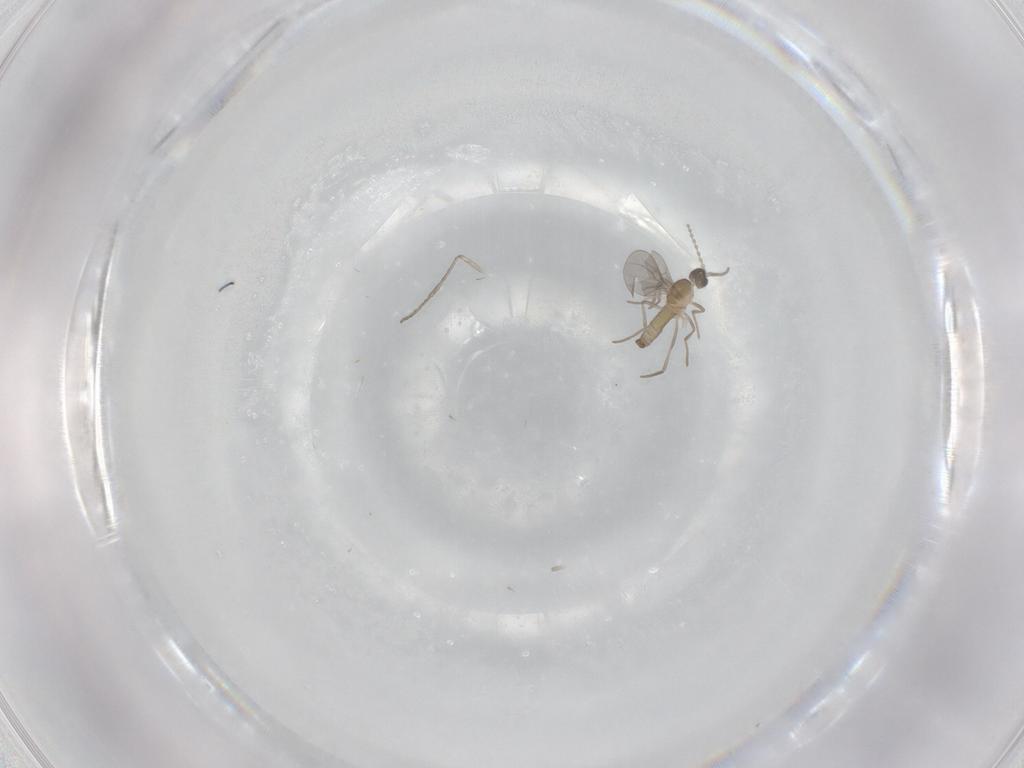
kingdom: Animalia
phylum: Arthropoda
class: Insecta
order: Diptera
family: Cecidomyiidae
